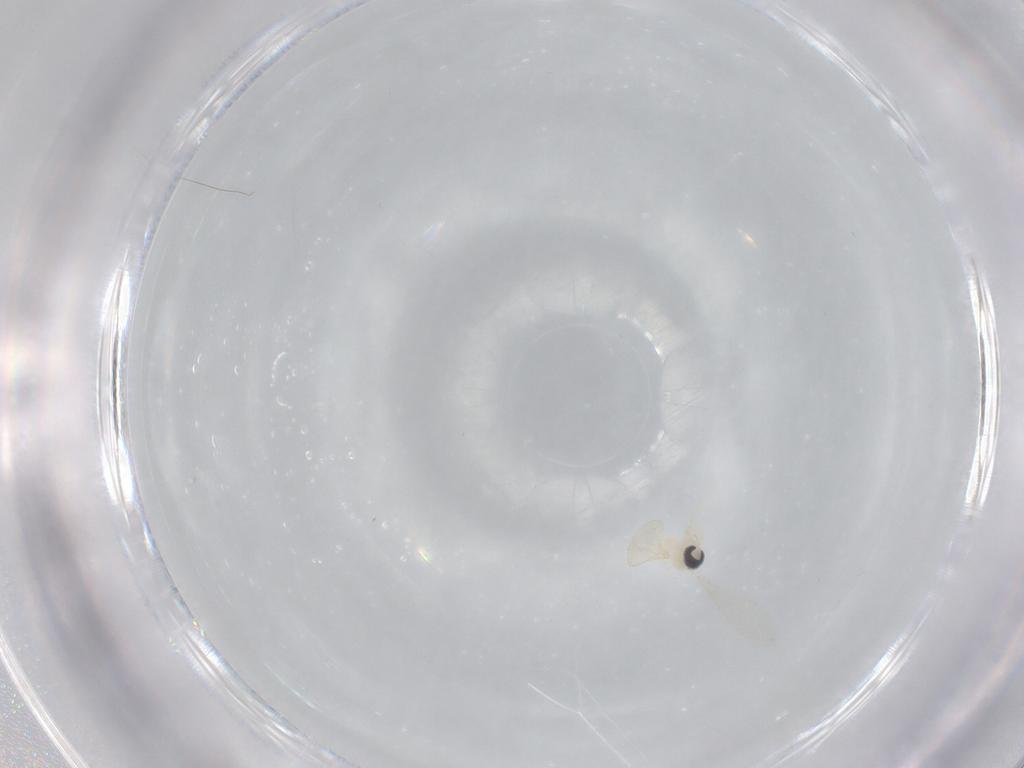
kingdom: Animalia
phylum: Arthropoda
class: Insecta
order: Diptera
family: Cecidomyiidae
